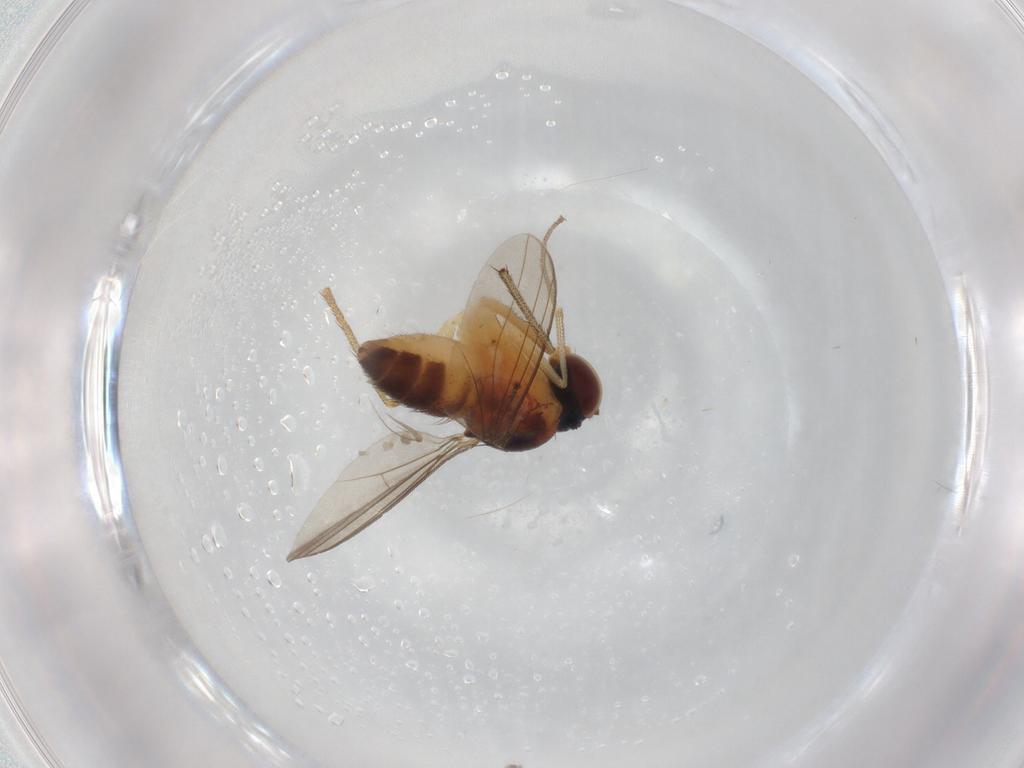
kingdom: Animalia
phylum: Arthropoda
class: Insecta
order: Diptera
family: Dolichopodidae
